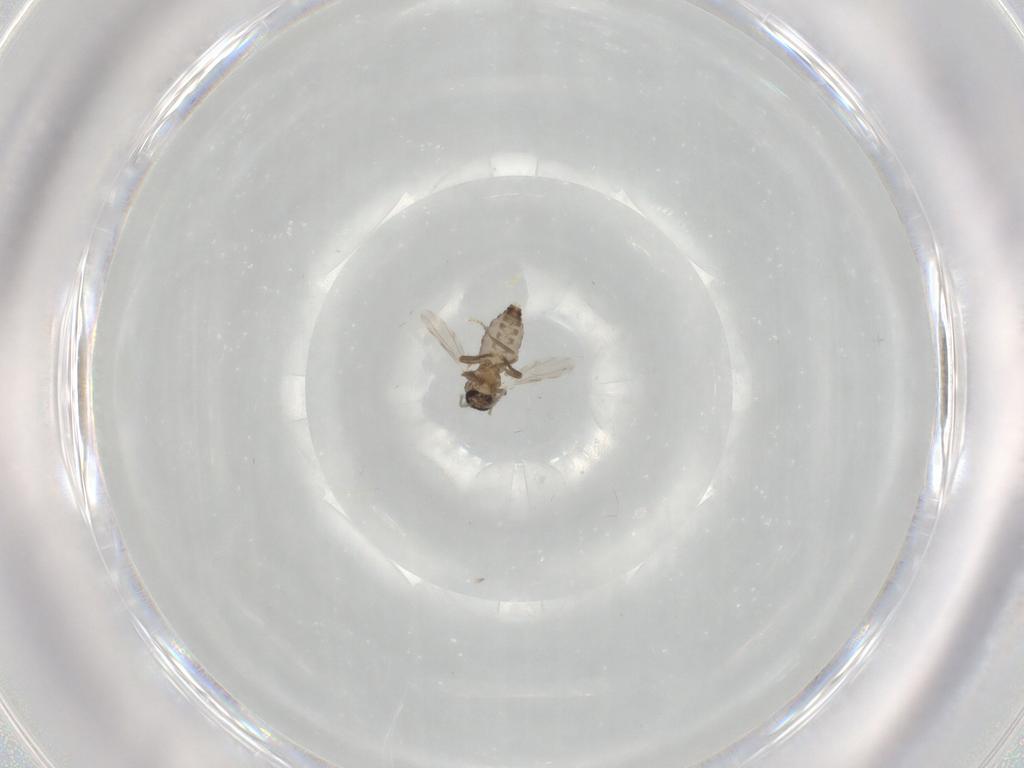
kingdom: Animalia
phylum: Arthropoda
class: Insecta
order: Diptera
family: Ceratopogonidae
